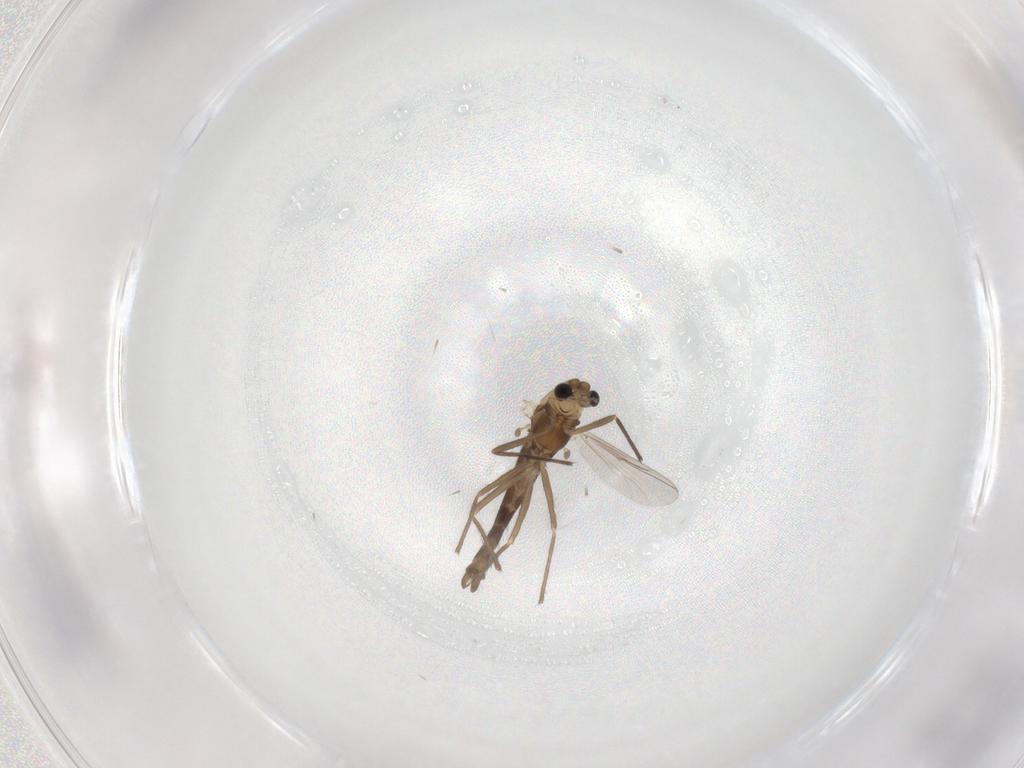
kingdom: Animalia
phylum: Arthropoda
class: Insecta
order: Diptera
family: Chironomidae
